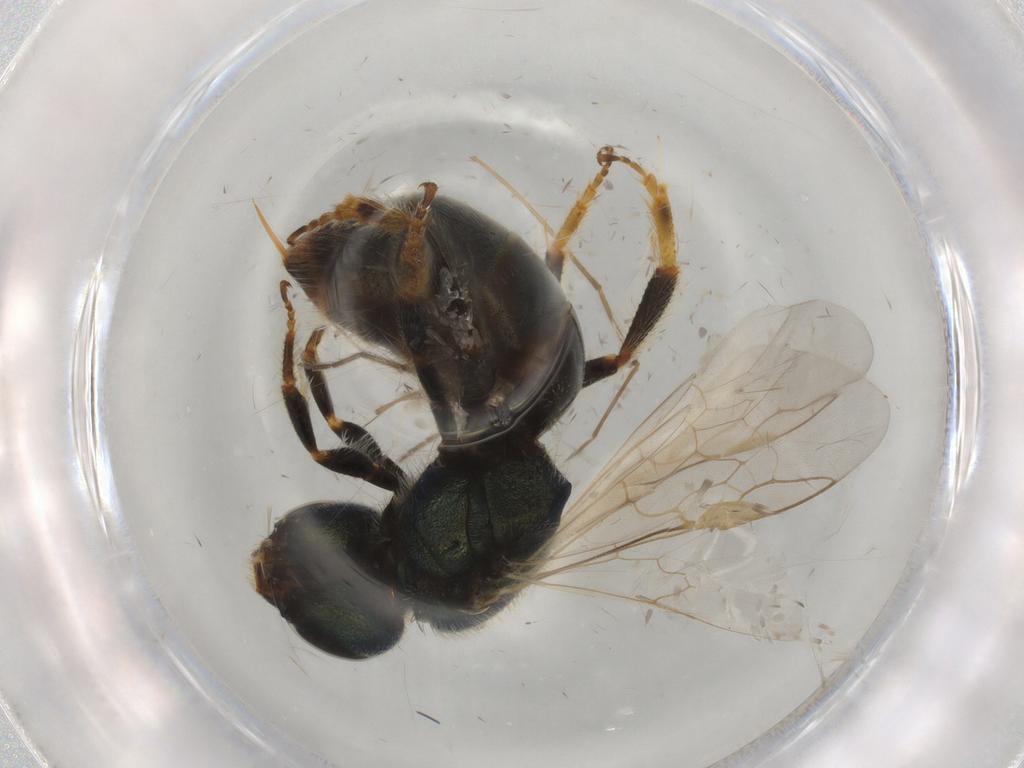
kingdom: Animalia
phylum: Arthropoda
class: Insecta
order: Hymenoptera
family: Halictidae
